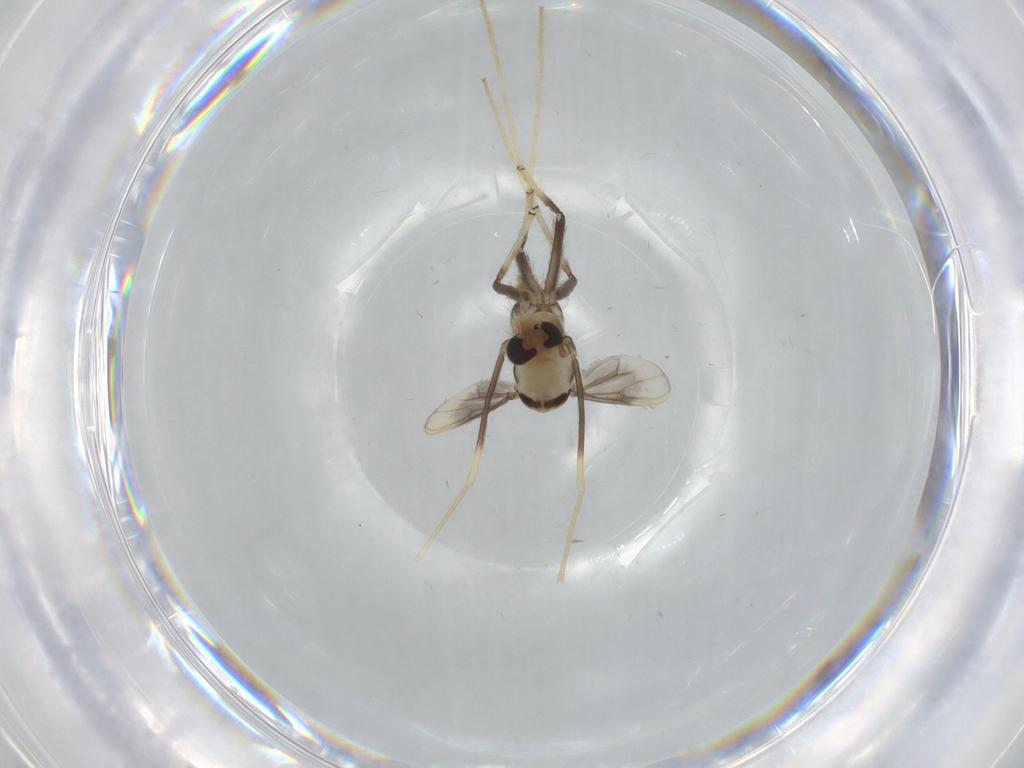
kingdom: Animalia
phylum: Arthropoda
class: Insecta
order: Diptera
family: Chironomidae
